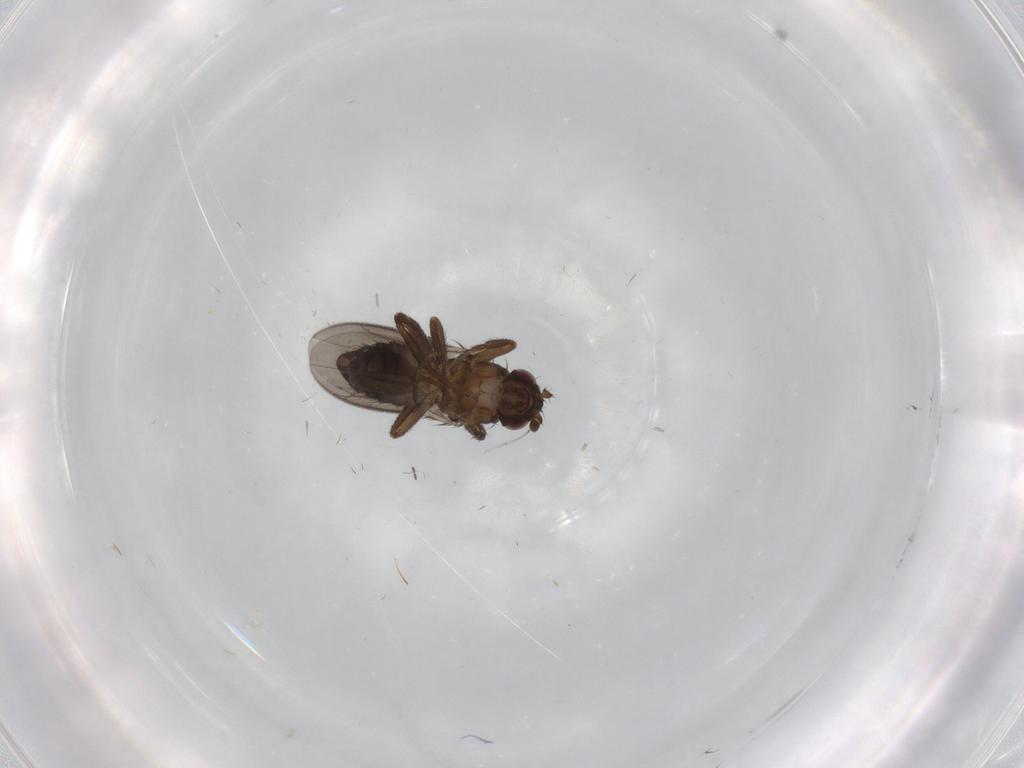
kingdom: Animalia
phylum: Arthropoda
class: Insecta
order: Diptera
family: Sphaeroceridae
